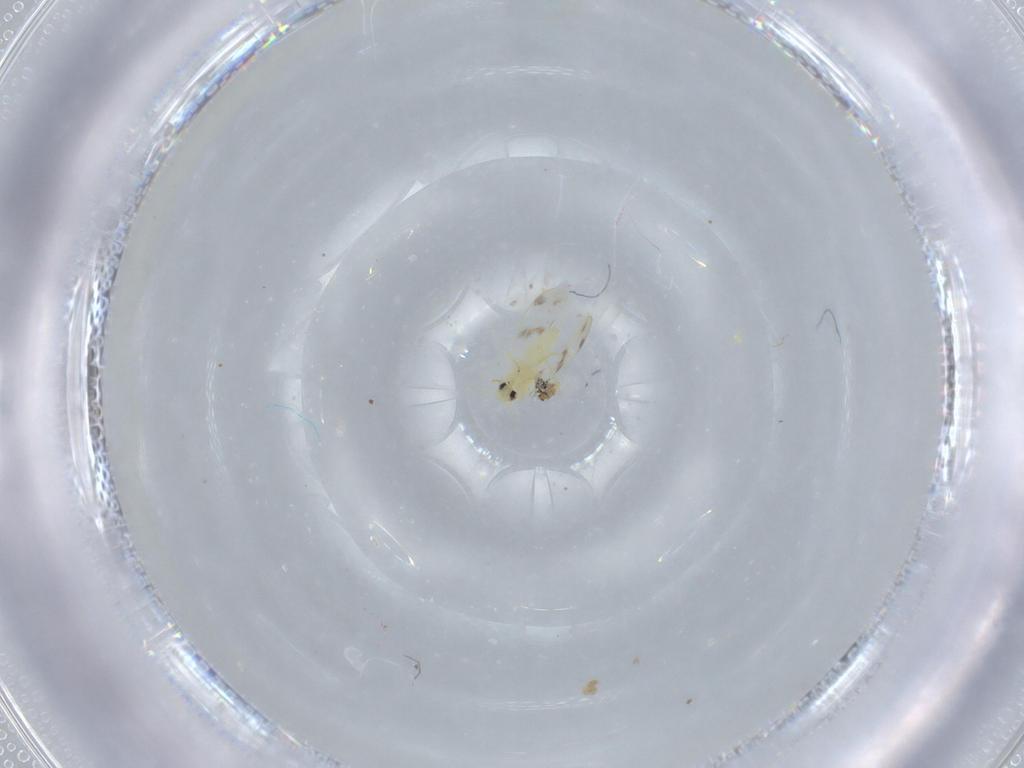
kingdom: Animalia
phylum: Arthropoda
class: Insecta
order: Hemiptera
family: Aleyrodidae
